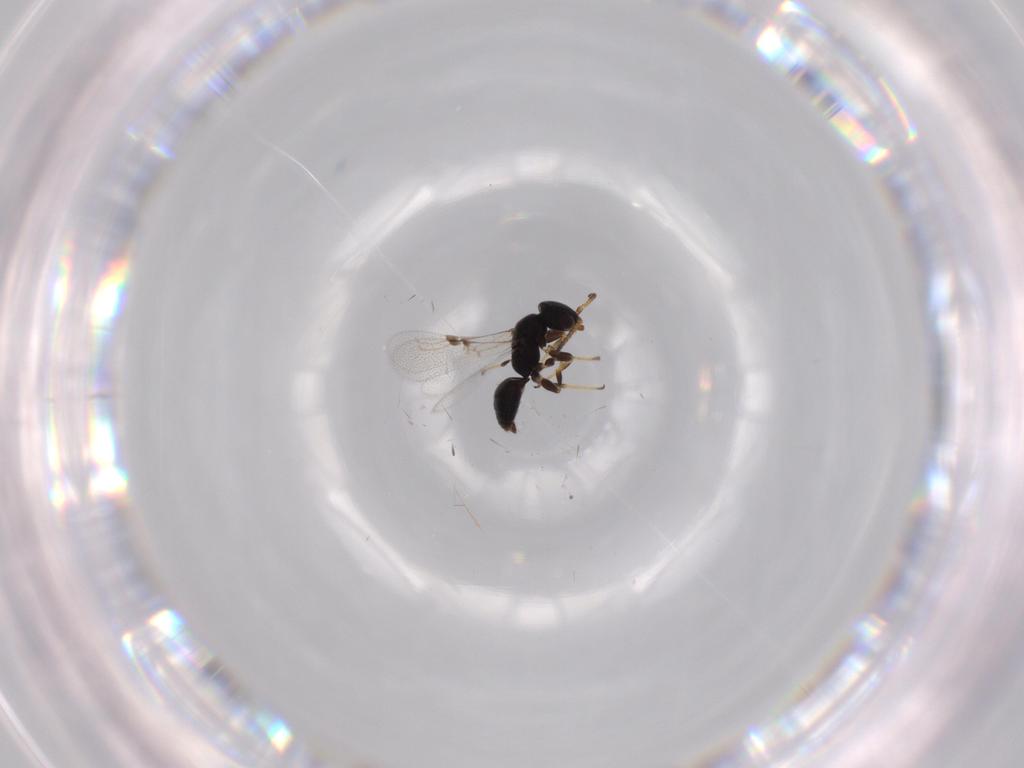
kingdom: Animalia
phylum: Arthropoda
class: Insecta
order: Hymenoptera
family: Bethylidae
